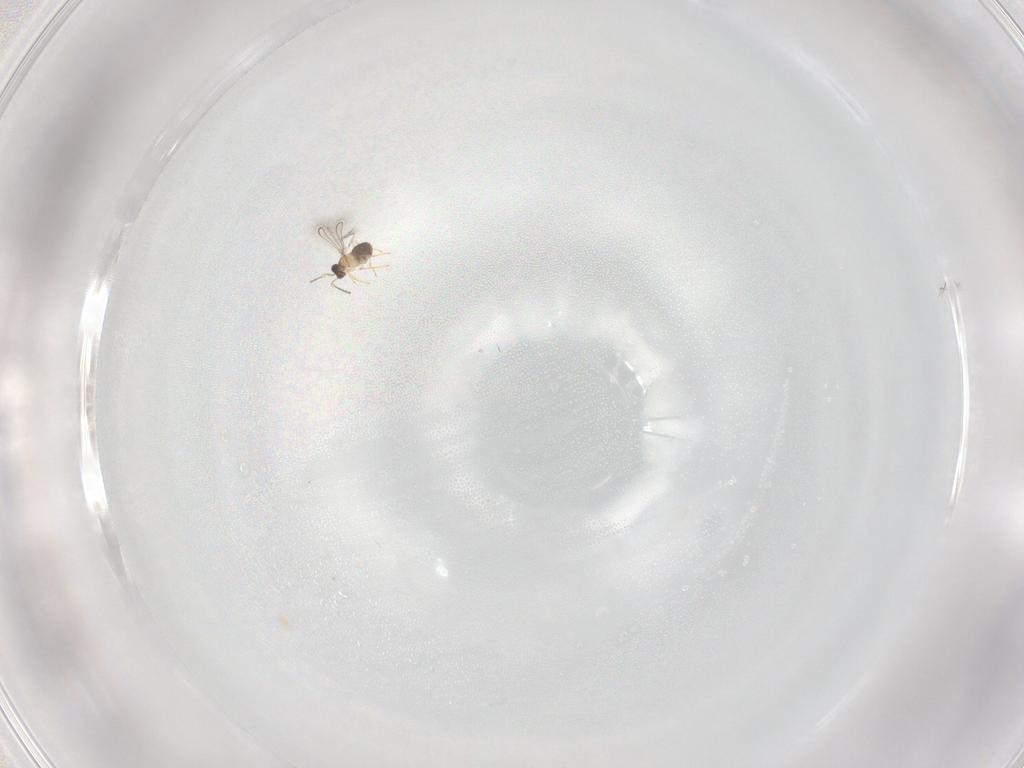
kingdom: Animalia
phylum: Arthropoda
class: Insecta
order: Hymenoptera
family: Mymaridae
